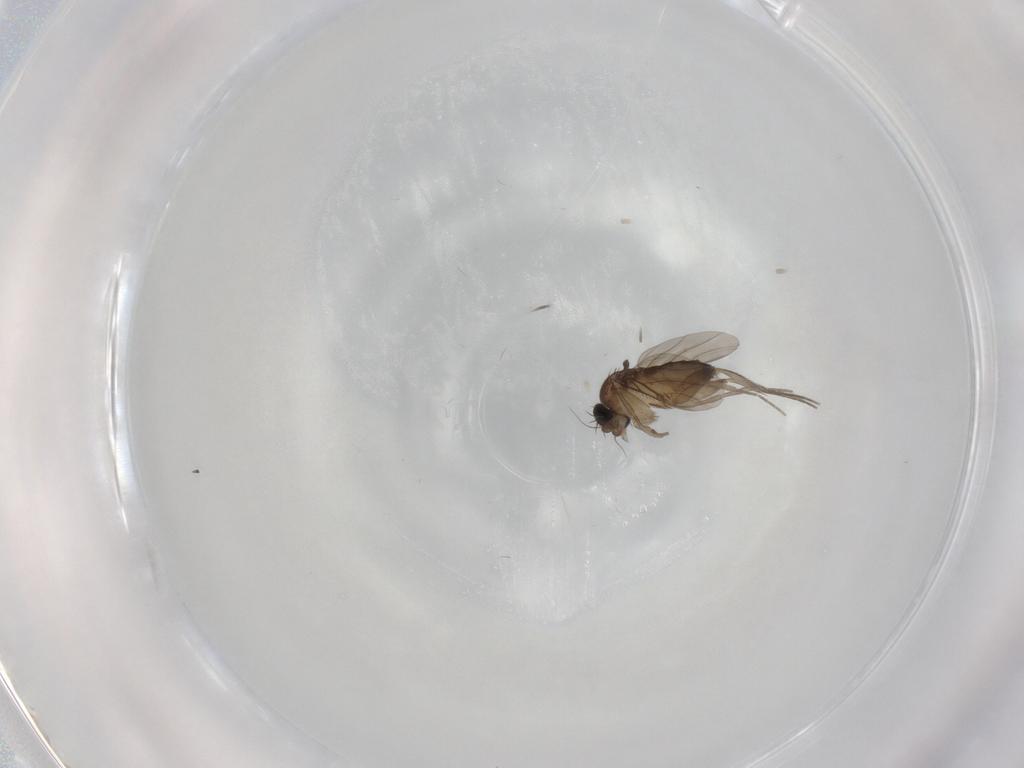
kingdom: Animalia
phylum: Arthropoda
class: Insecta
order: Diptera
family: Phoridae
